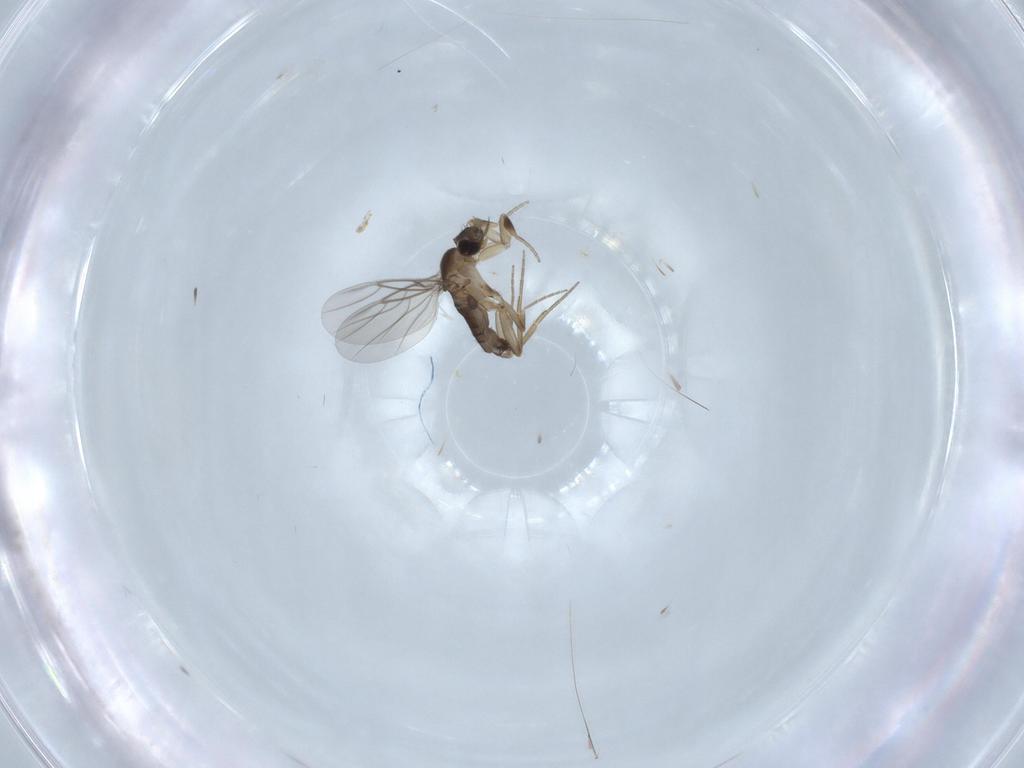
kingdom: Animalia
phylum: Arthropoda
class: Insecta
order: Diptera
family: Phoridae
